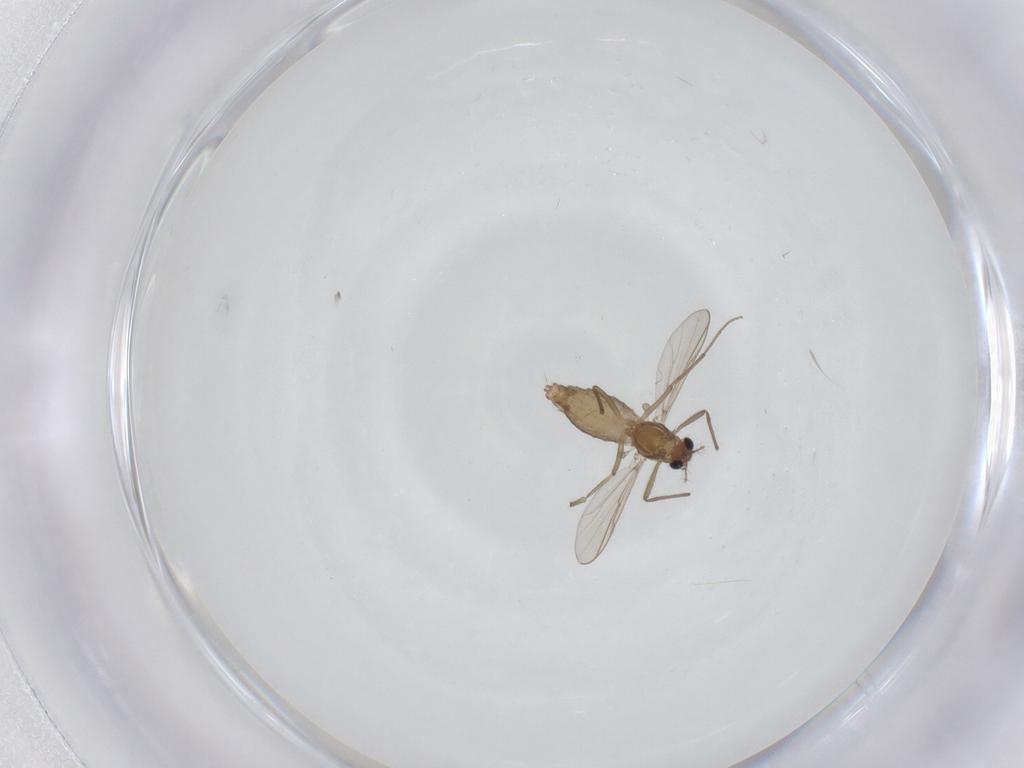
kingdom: Animalia
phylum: Arthropoda
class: Insecta
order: Diptera
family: Chironomidae
